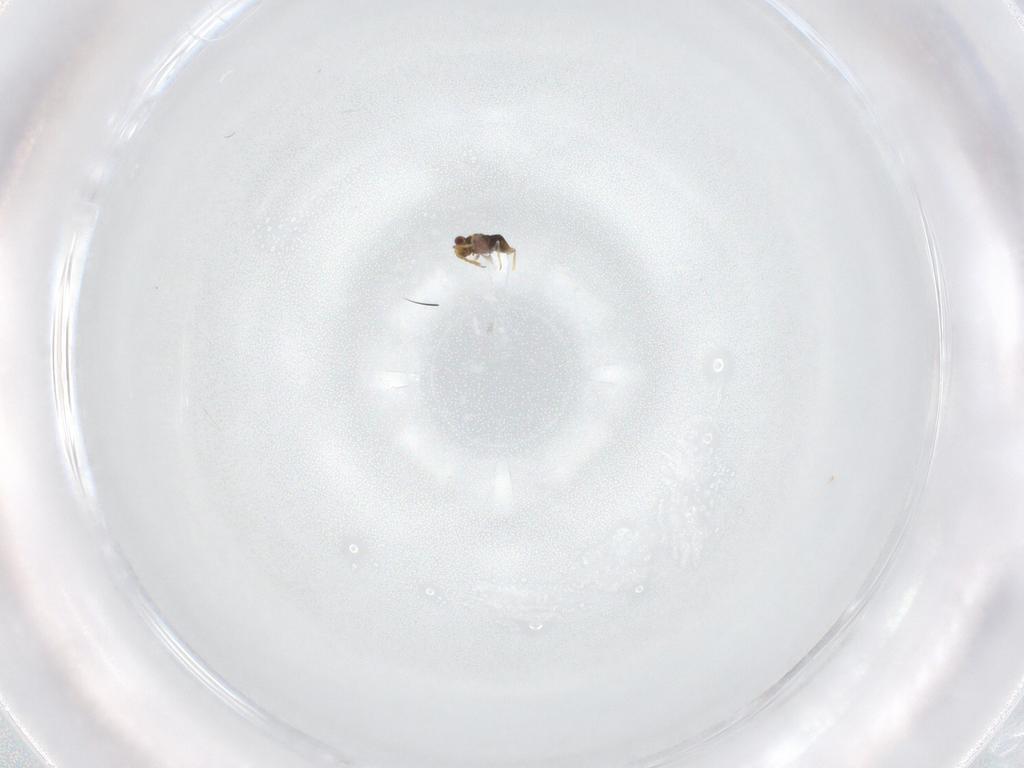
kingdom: Animalia
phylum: Arthropoda
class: Insecta
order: Hymenoptera
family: Aphelinidae
